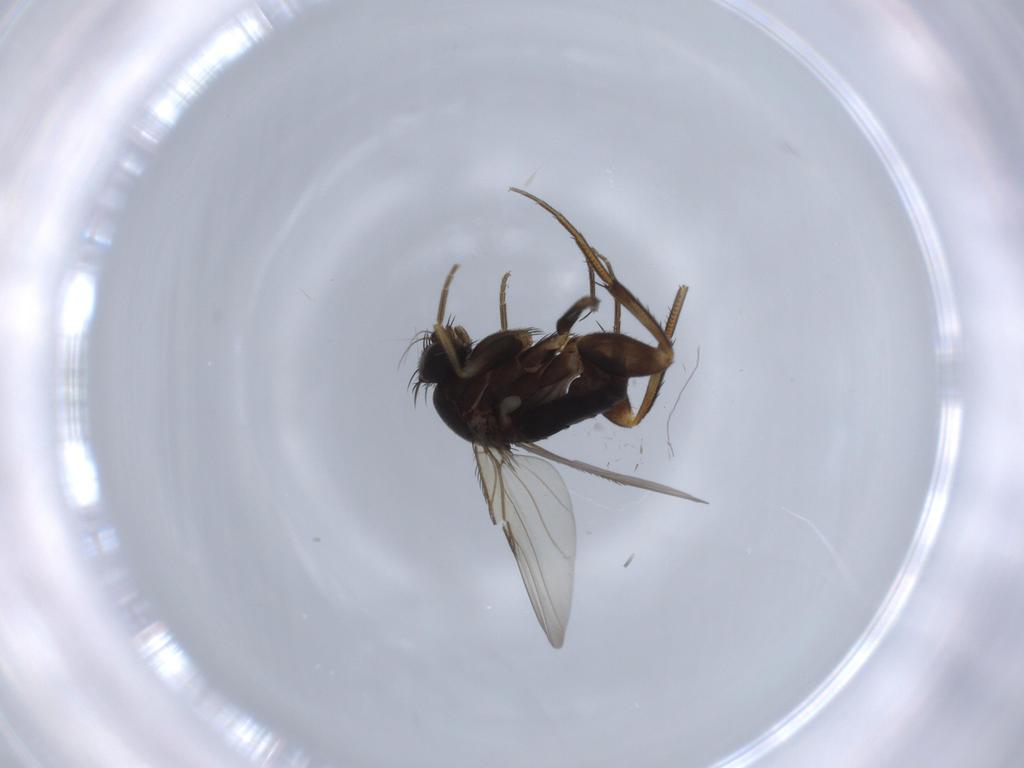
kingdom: Animalia
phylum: Arthropoda
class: Insecta
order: Diptera
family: Phoridae
